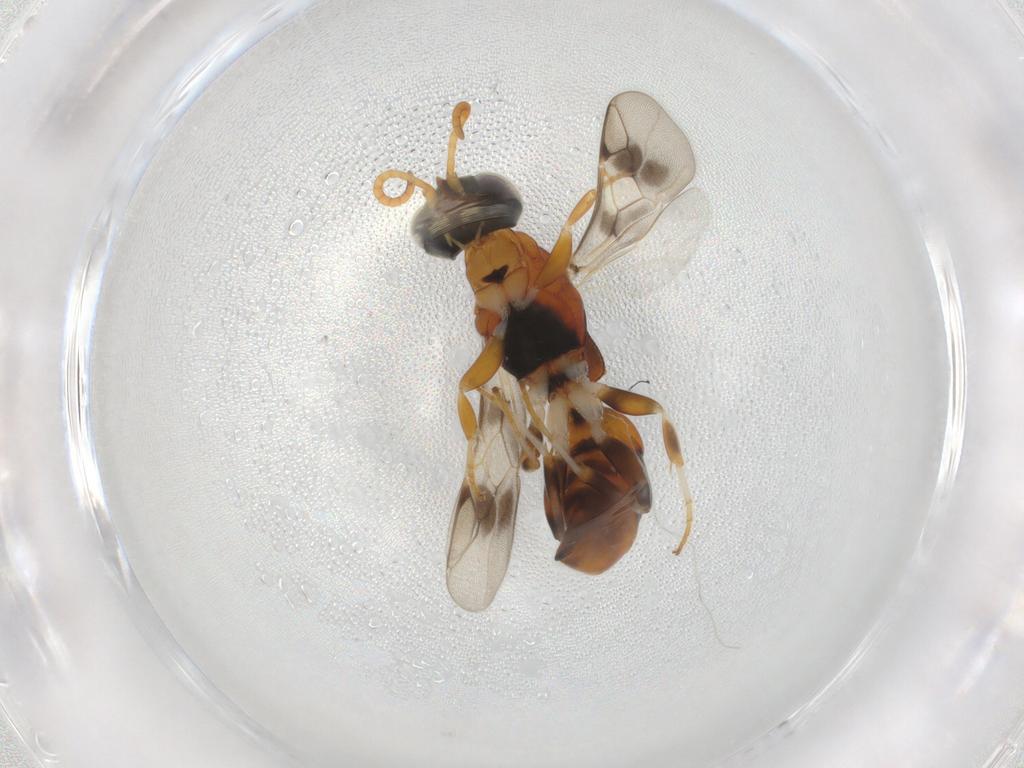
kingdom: Animalia
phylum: Arthropoda
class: Insecta
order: Hymenoptera
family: Crabronidae
